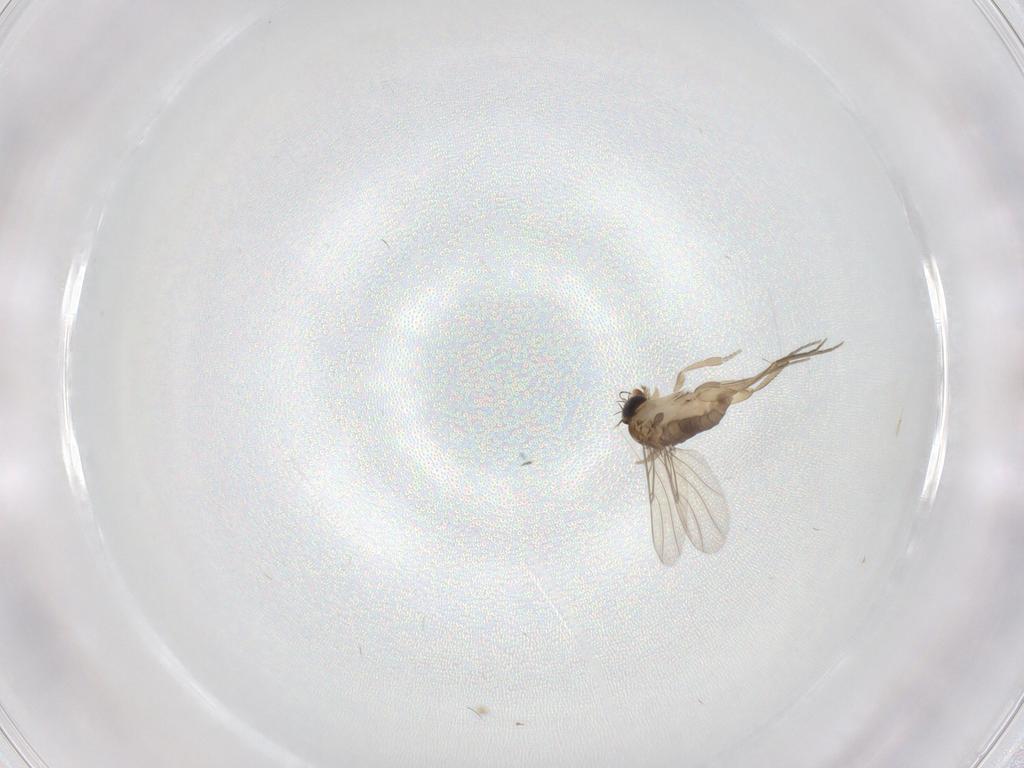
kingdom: Animalia
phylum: Arthropoda
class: Insecta
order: Diptera
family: Phoridae
